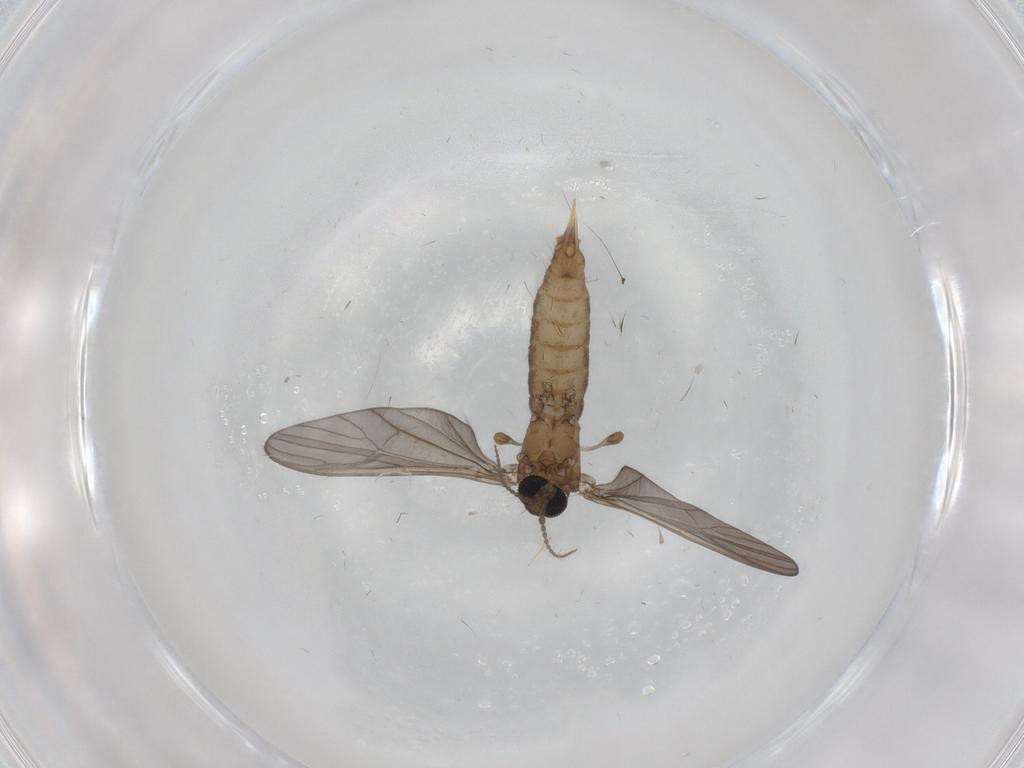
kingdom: Animalia
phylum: Arthropoda
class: Insecta
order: Diptera
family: Limoniidae
